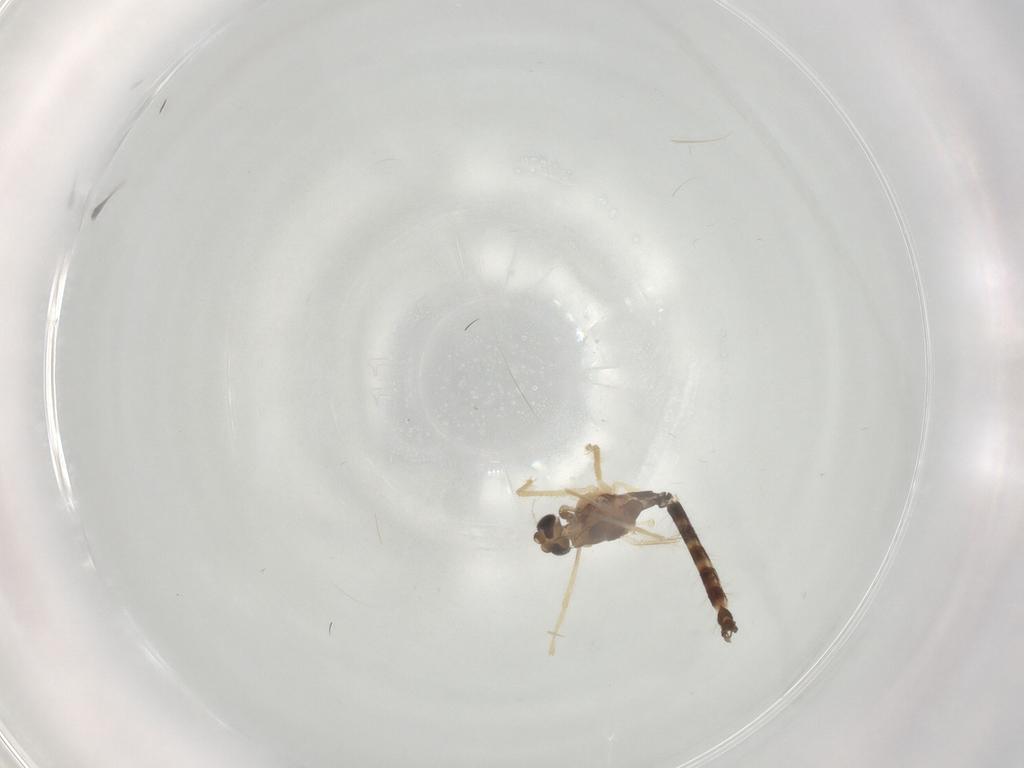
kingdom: Animalia
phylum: Arthropoda
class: Insecta
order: Diptera
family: Chironomidae
